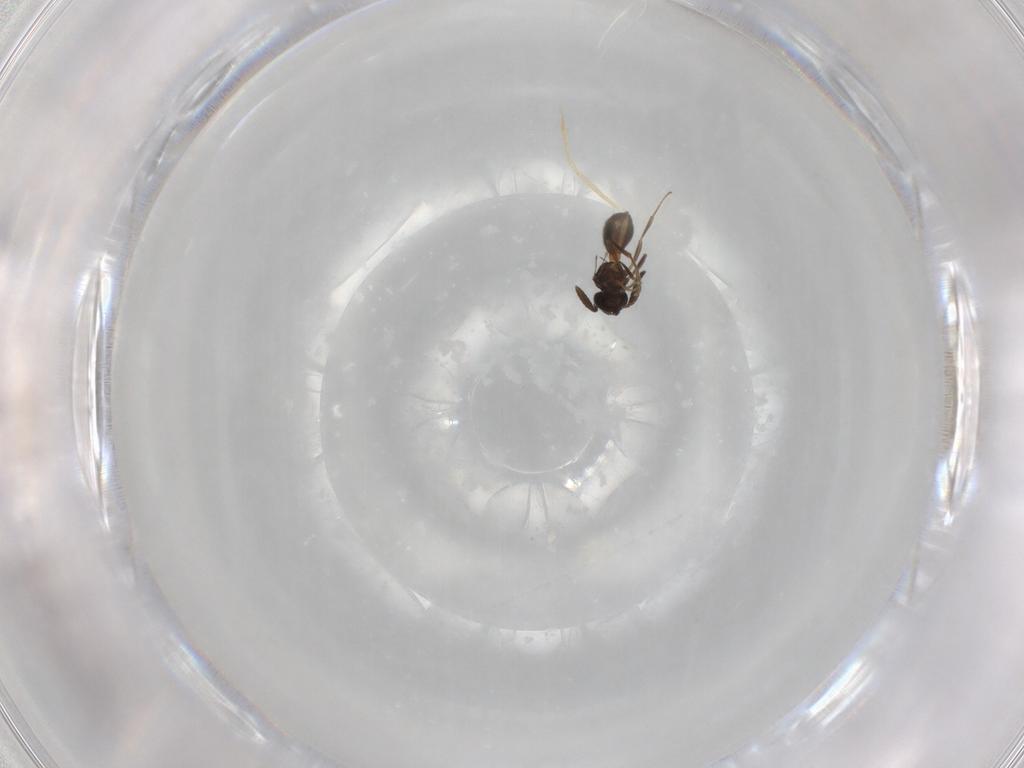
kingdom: Animalia
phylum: Arthropoda
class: Insecta
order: Hymenoptera
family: Scelionidae
